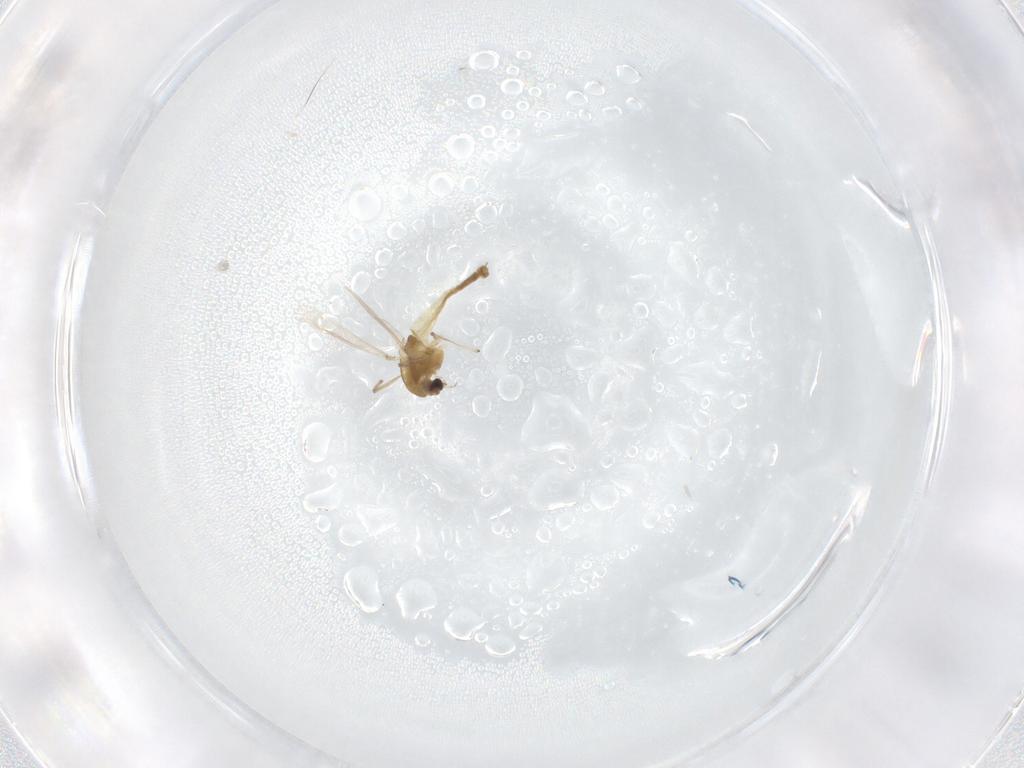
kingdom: Animalia
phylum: Arthropoda
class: Insecta
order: Diptera
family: Chironomidae
